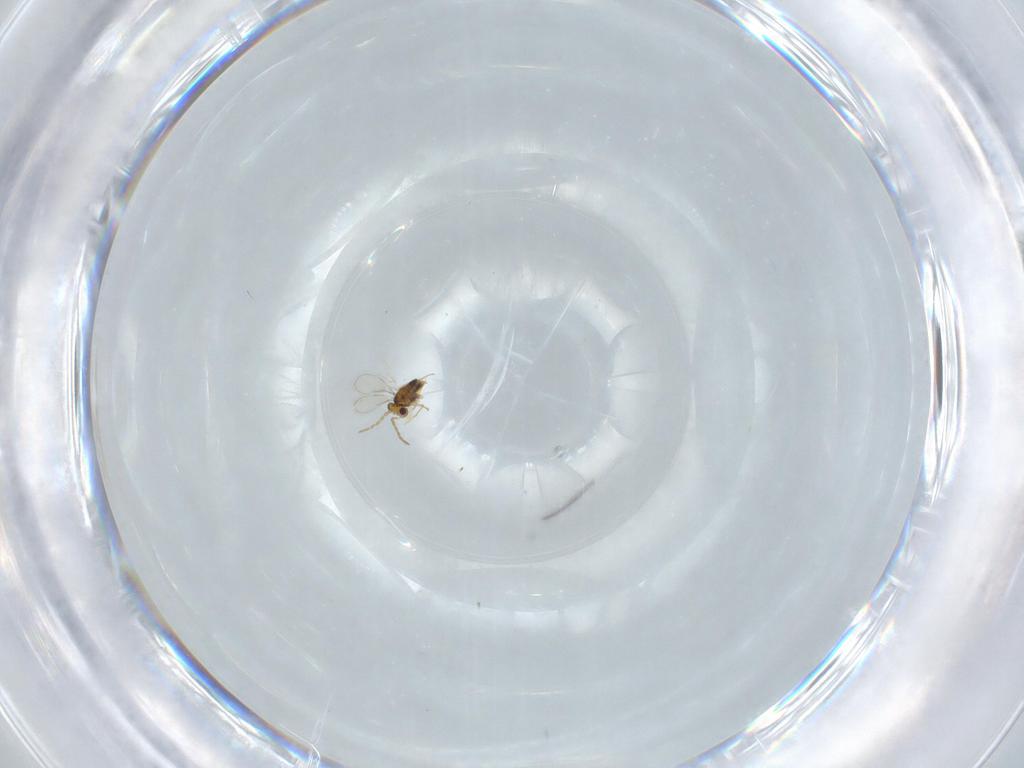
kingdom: Animalia
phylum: Arthropoda
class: Insecta
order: Hymenoptera
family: Aphelinidae
